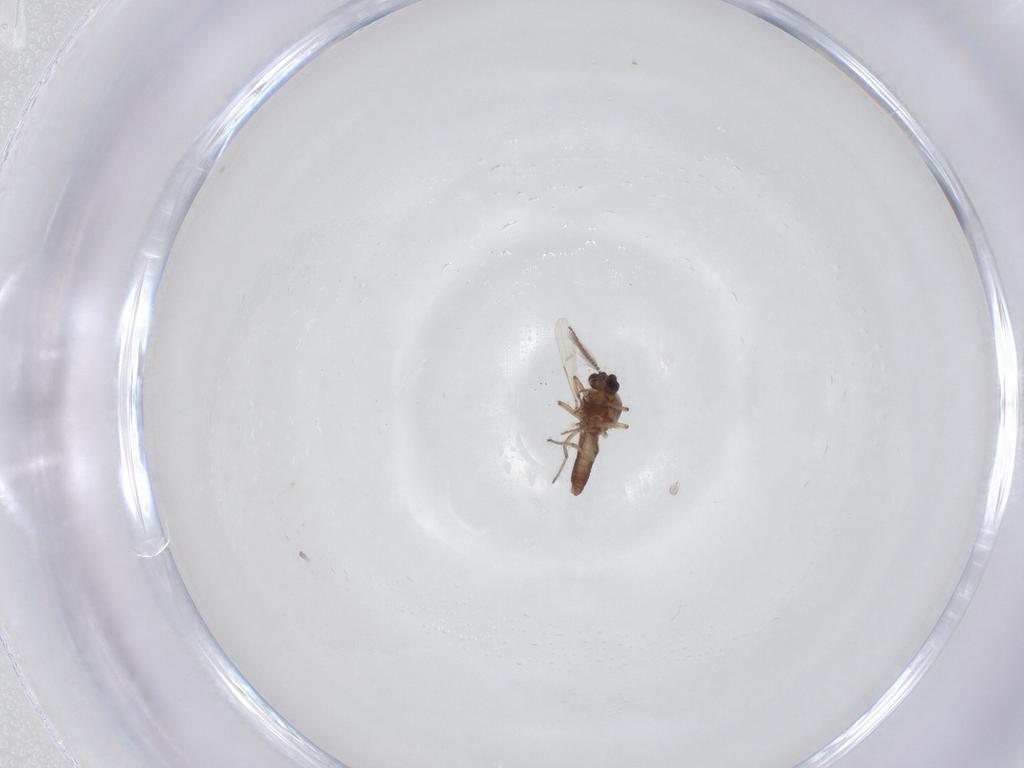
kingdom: Animalia
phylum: Arthropoda
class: Insecta
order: Diptera
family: Ceratopogonidae
